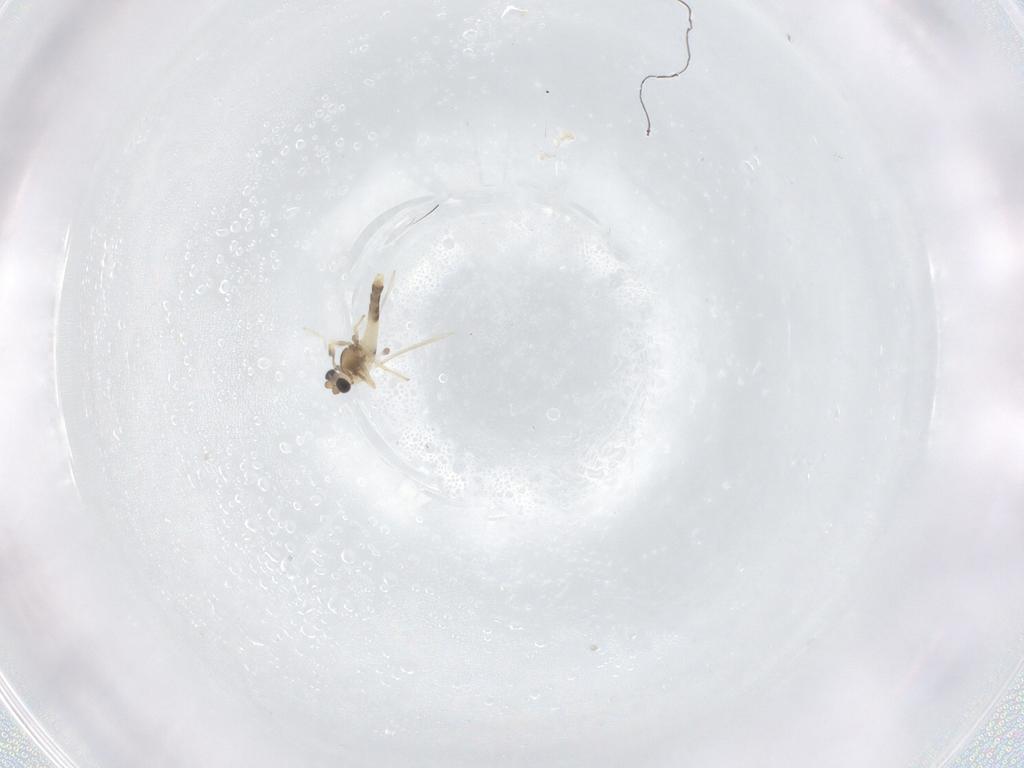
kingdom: Animalia
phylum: Arthropoda
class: Insecta
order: Diptera
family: Chironomidae
